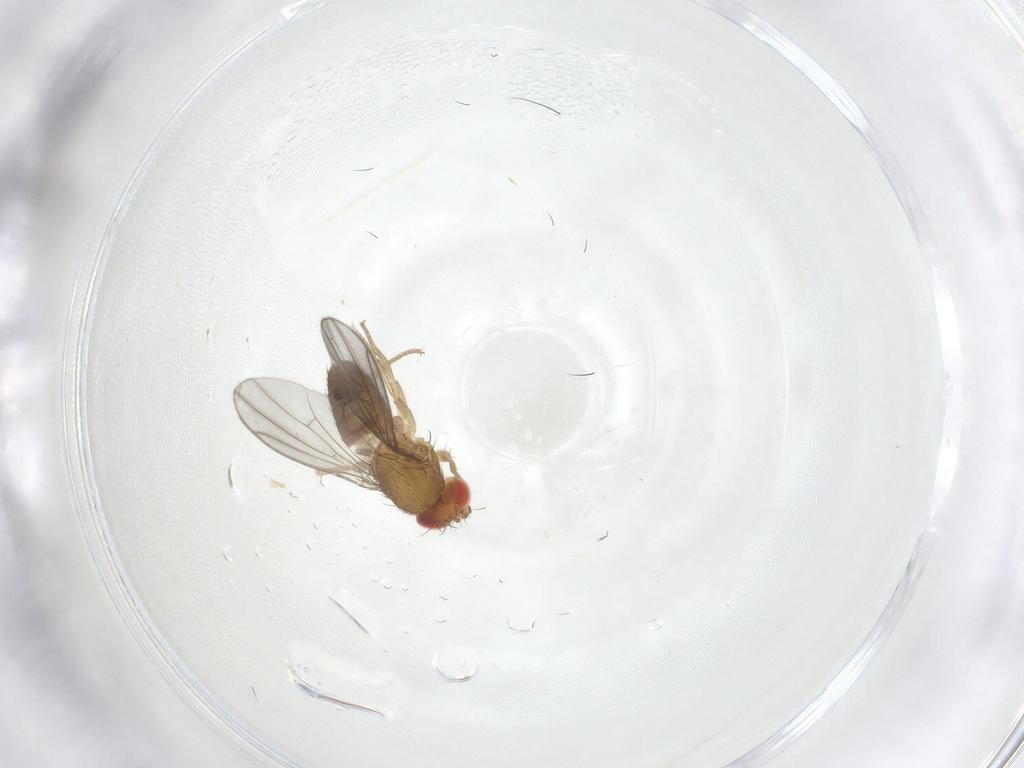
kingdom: Animalia
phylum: Arthropoda
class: Insecta
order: Diptera
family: Drosophilidae
